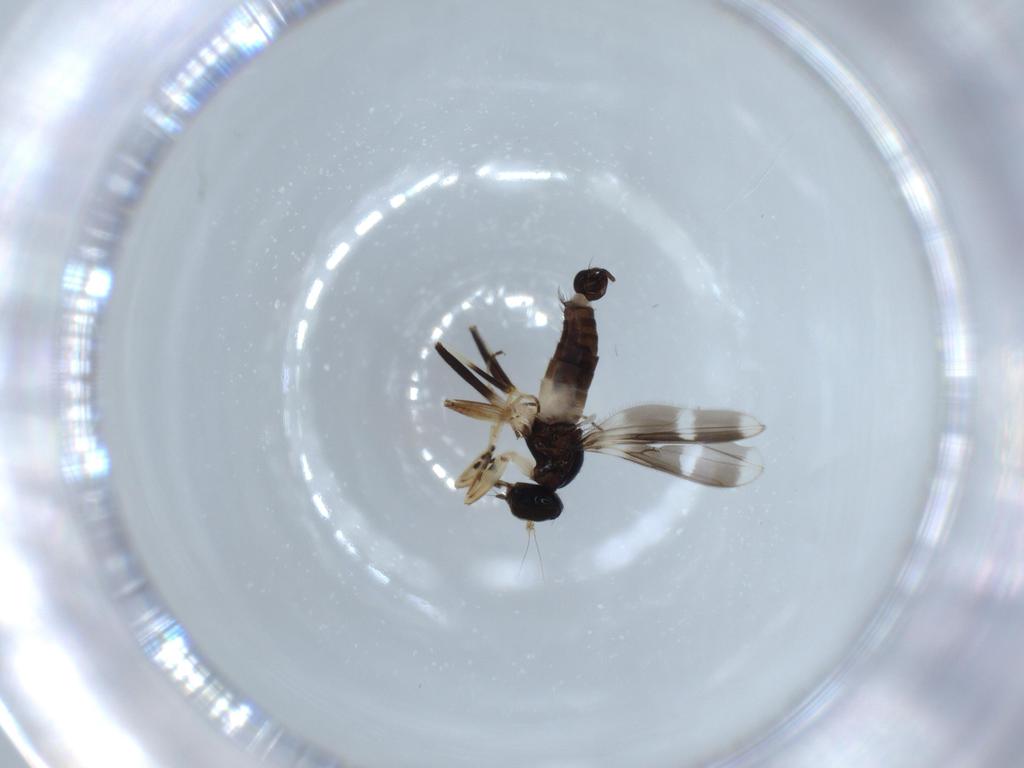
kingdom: Animalia
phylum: Arthropoda
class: Insecta
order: Diptera
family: Hybotidae
